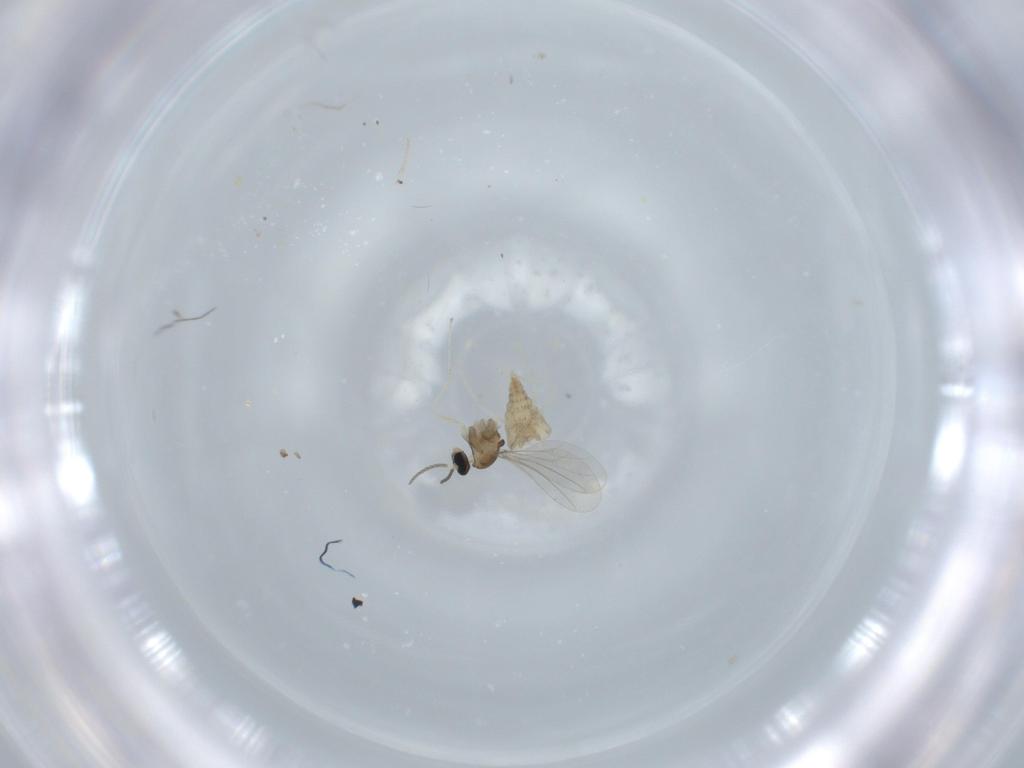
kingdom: Animalia
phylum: Arthropoda
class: Insecta
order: Diptera
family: Cecidomyiidae
